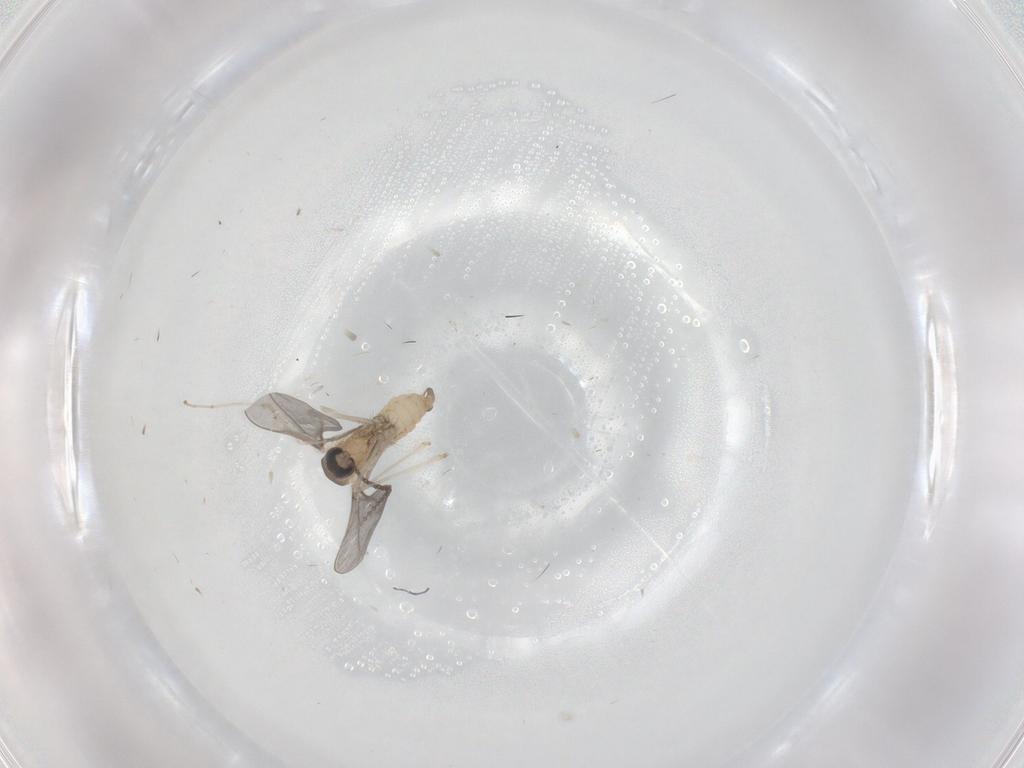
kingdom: Animalia
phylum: Arthropoda
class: Insecta
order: Diptera
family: Cecidomyiidae
